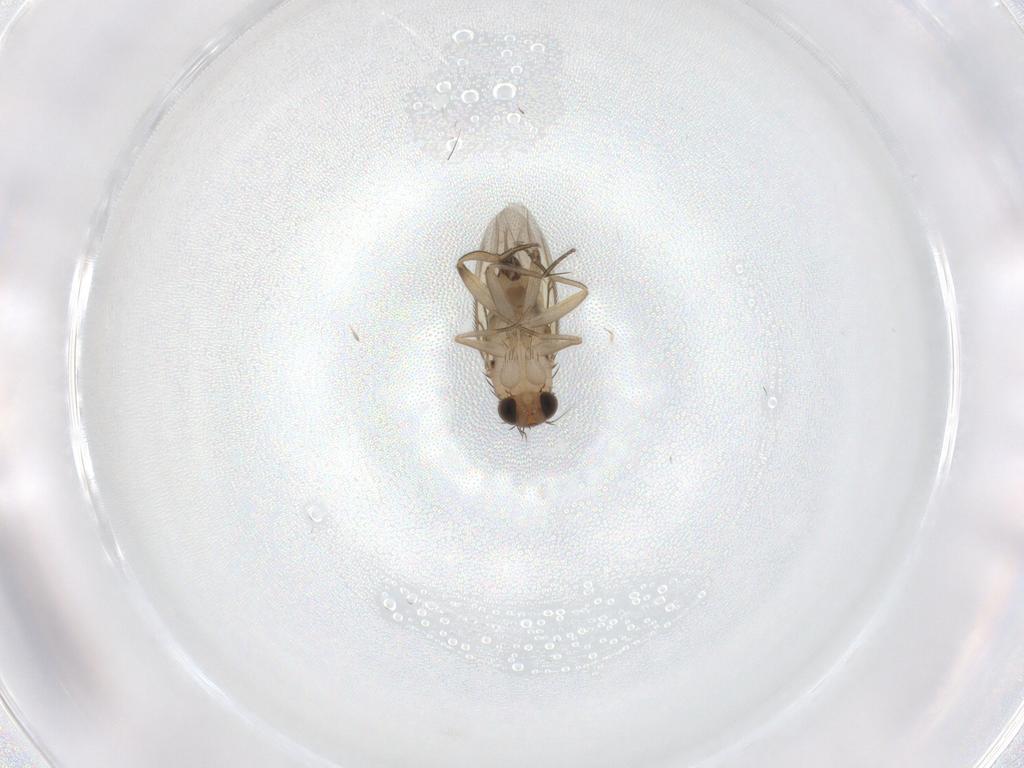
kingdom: Animalia
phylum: Arthropoda
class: Insecta
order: Diptera
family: Phoridae
